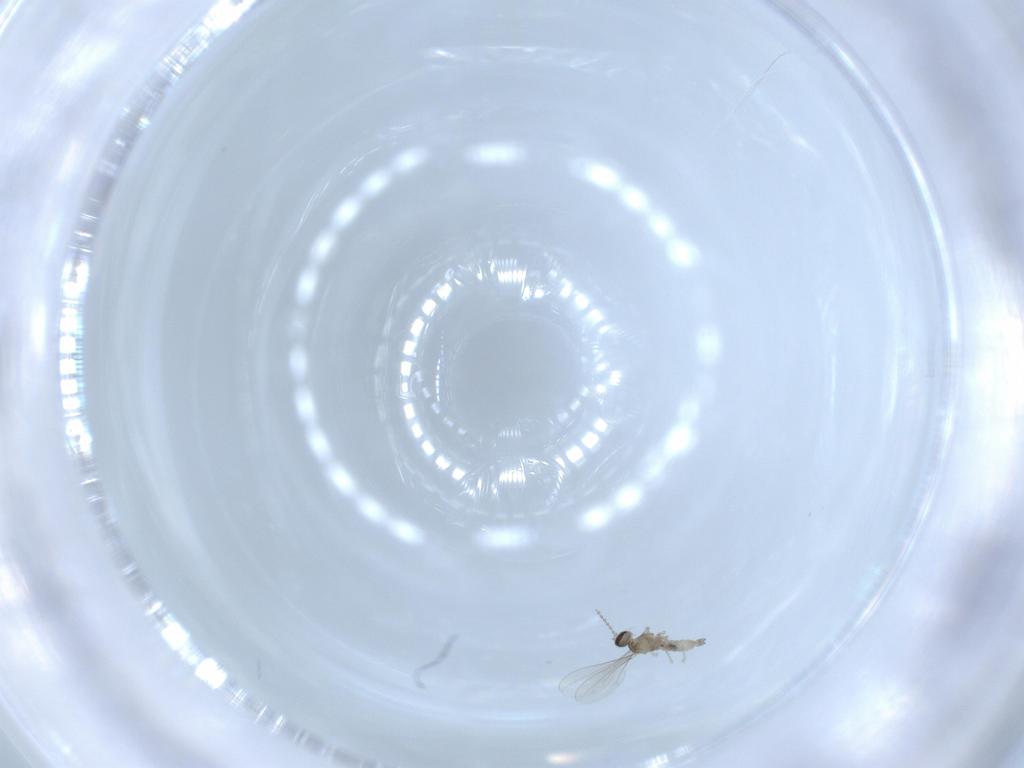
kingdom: Animalia
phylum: Arthropoda
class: Insecta
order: Diptera
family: Cecidomyiidae
